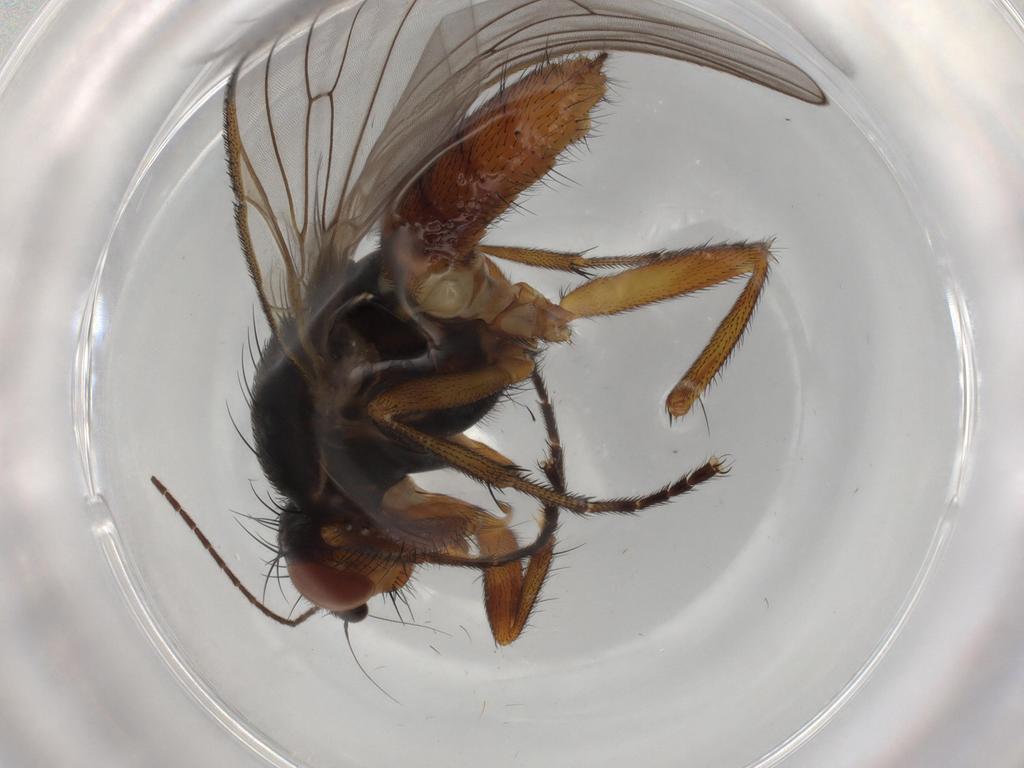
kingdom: Animalia
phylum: Arthropoda
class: Insecta
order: Diptera
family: Heleomyzidae
